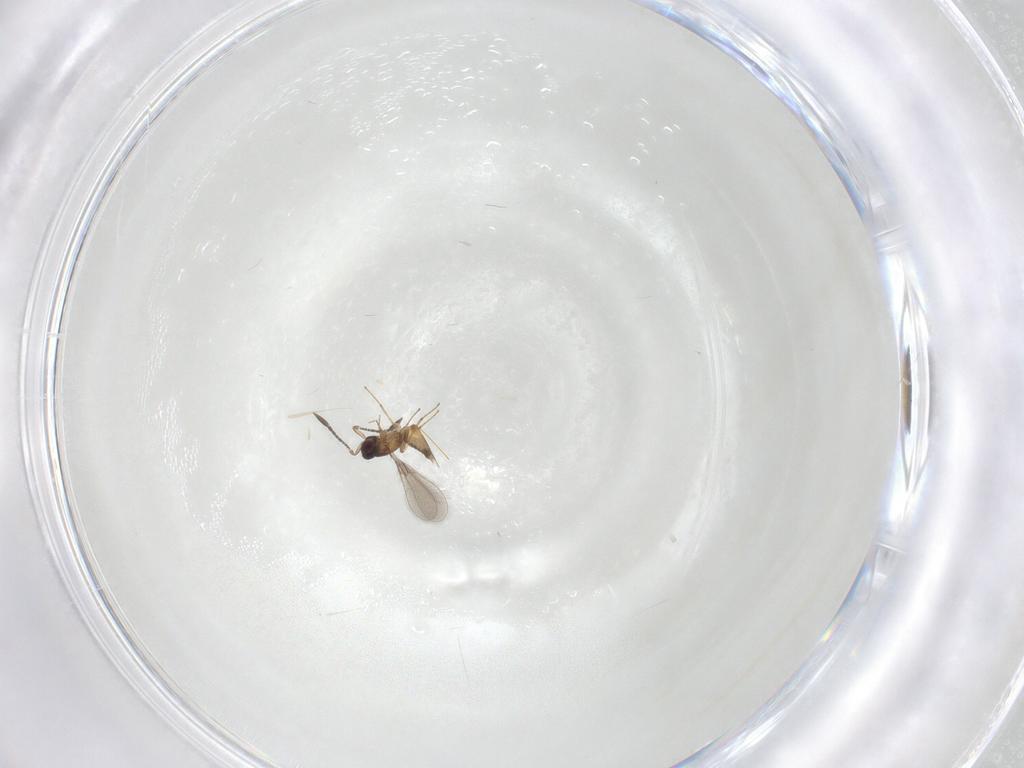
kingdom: Animalia
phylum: Arthropoda
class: Insecta
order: Hymenoptera
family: Mymaridae
